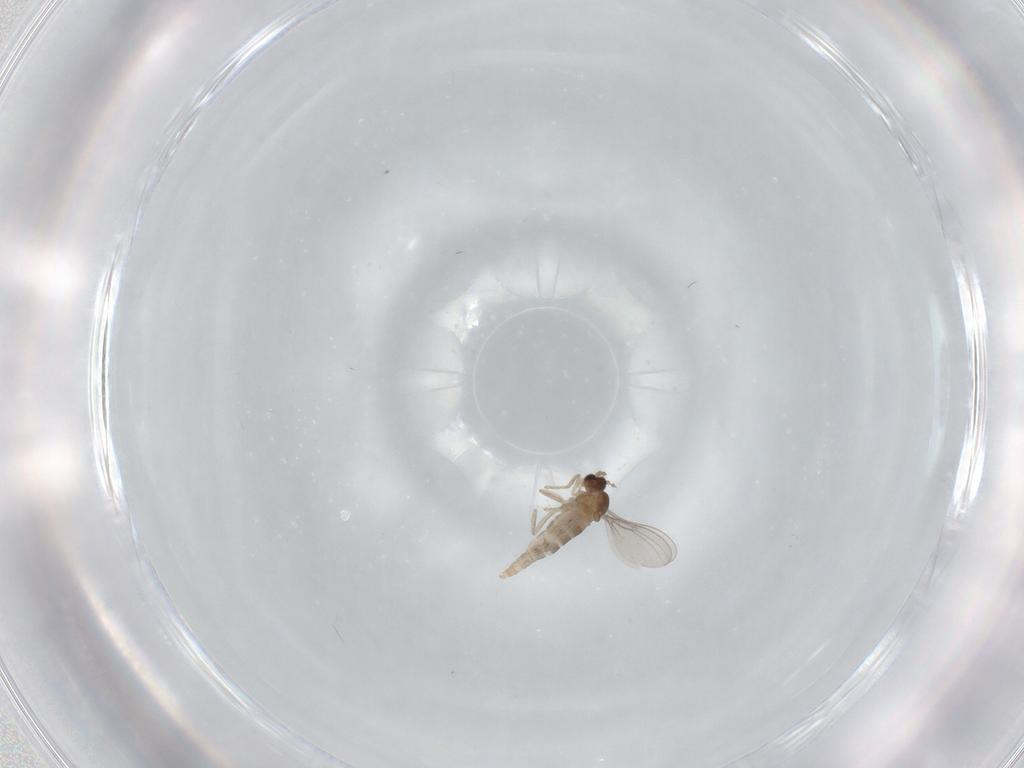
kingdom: Animalia
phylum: Arthropoda
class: Insecta
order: Diptera
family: Cecidomyiidae
